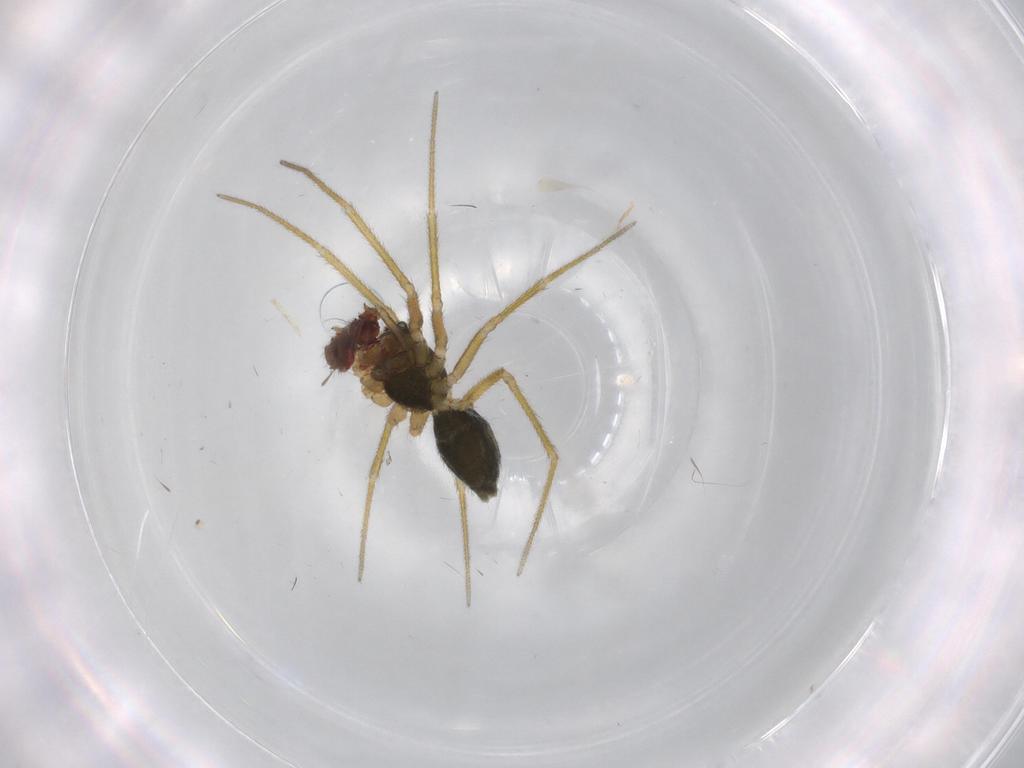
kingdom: Animalia
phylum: Arthropoda
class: Arachnida
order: Araneae
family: Linyphiidae
